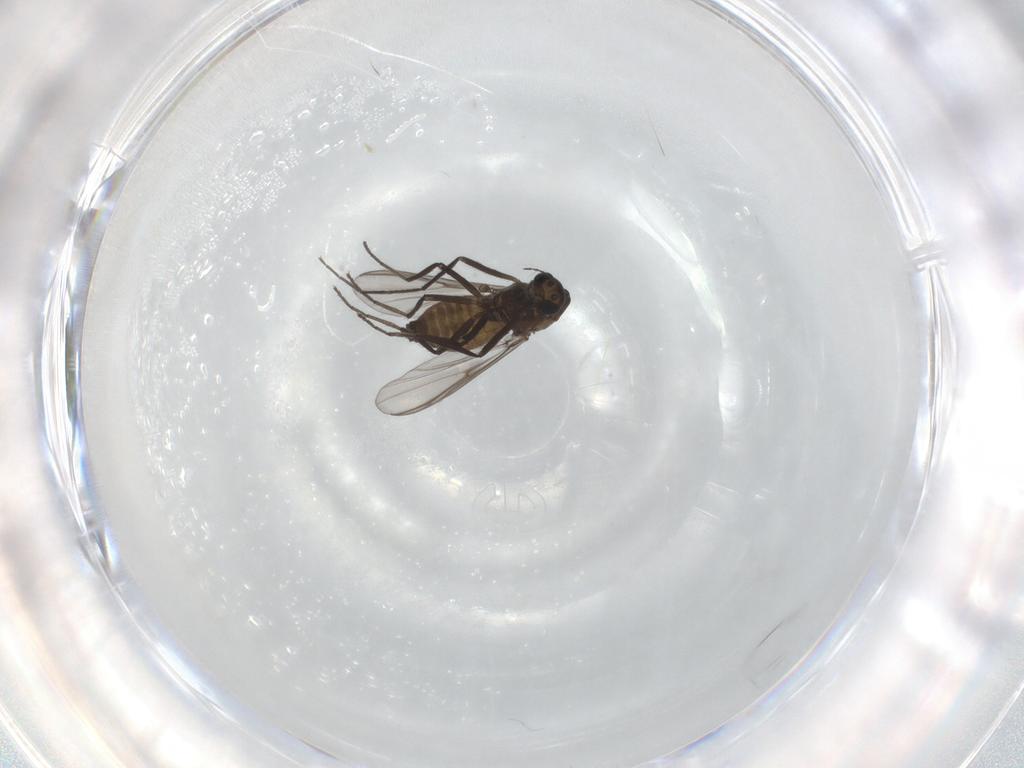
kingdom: Animalia
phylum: Arthropoda
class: Insecta
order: Diptera
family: Chironomidae
